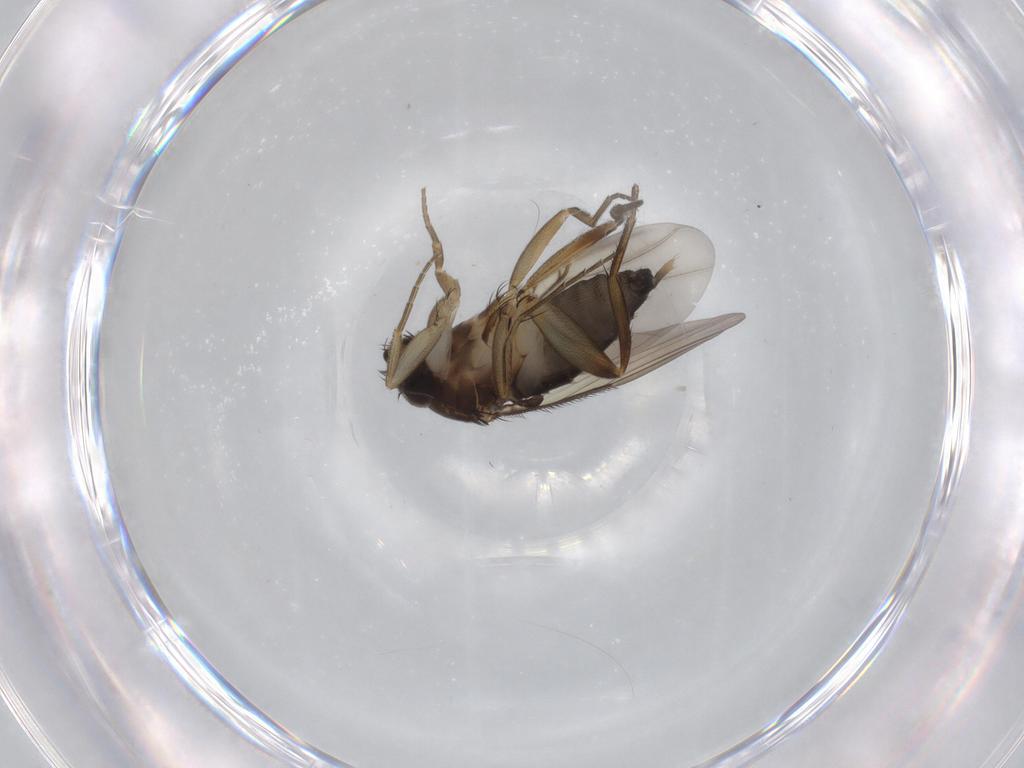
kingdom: Animalia
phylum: Arthropoda
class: Insecta
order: Diptera
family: Phoridae
